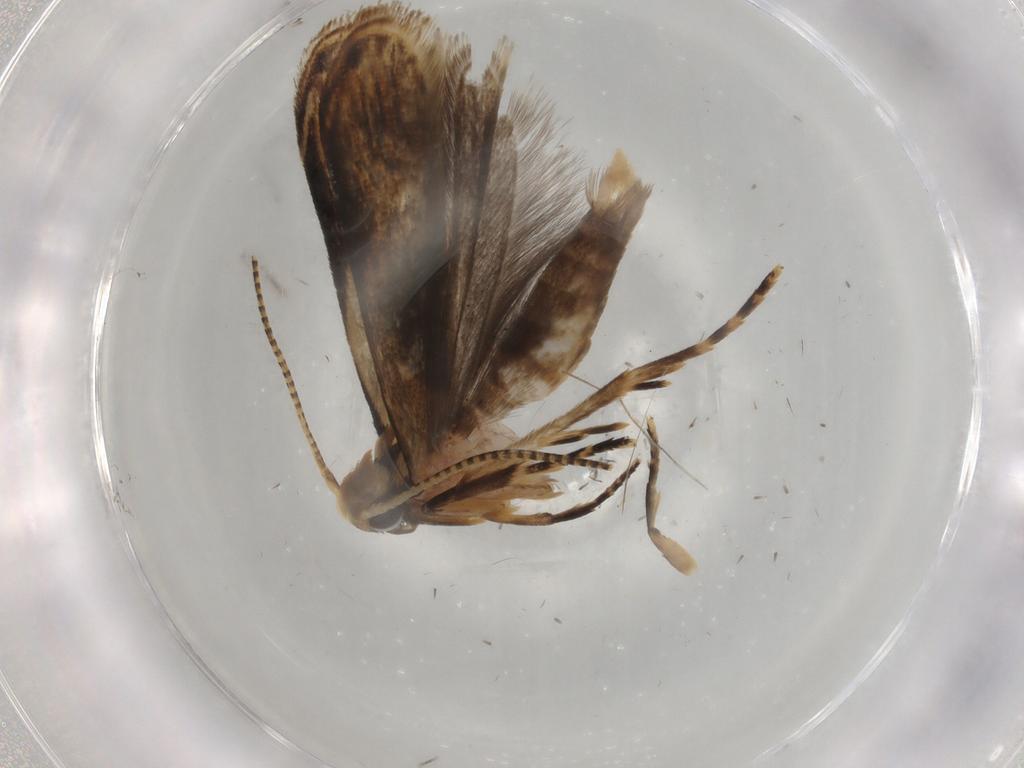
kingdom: Animalia
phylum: Arthropoda
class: Insecta
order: Lepidoptera
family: Gelechiidae
